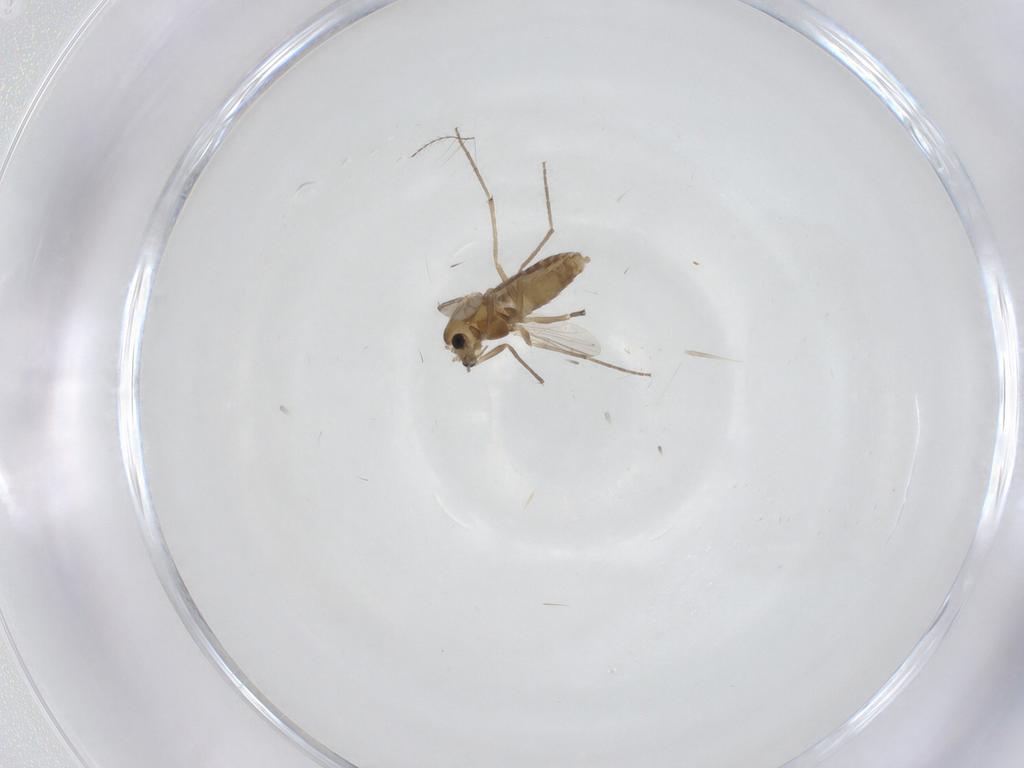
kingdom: Animalia
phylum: Arthropoda
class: Insecta
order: Diptera
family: Chironomidae
